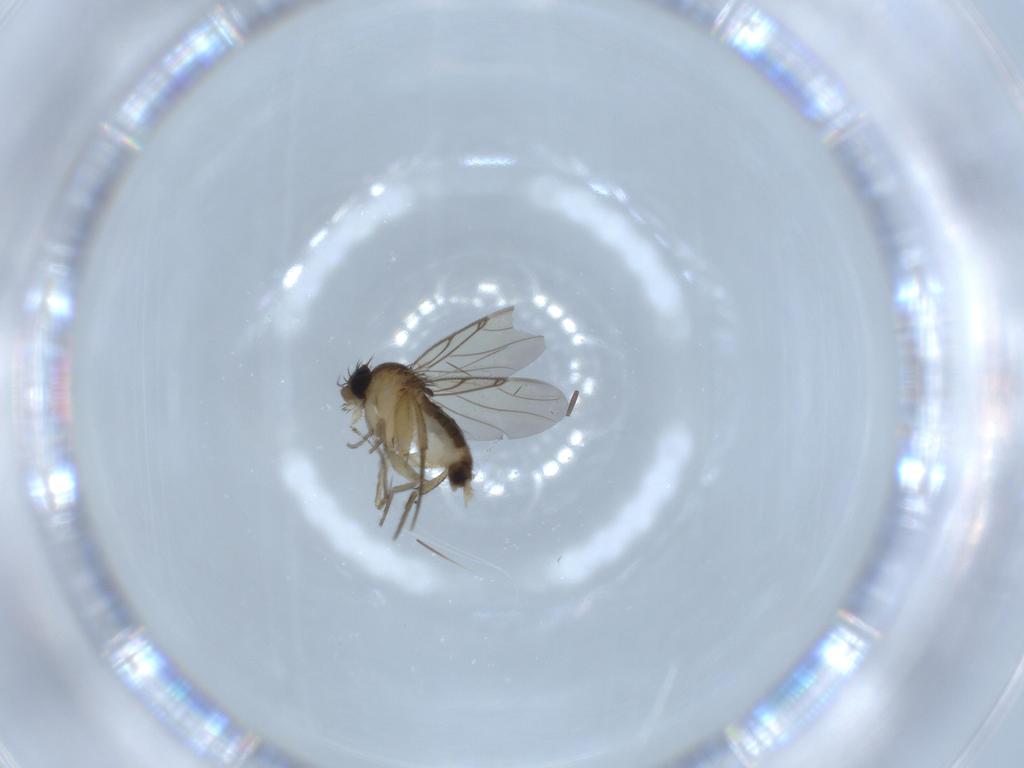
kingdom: Animalia
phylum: Arthropoda
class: Insecta
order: Diptera
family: Phoridae
